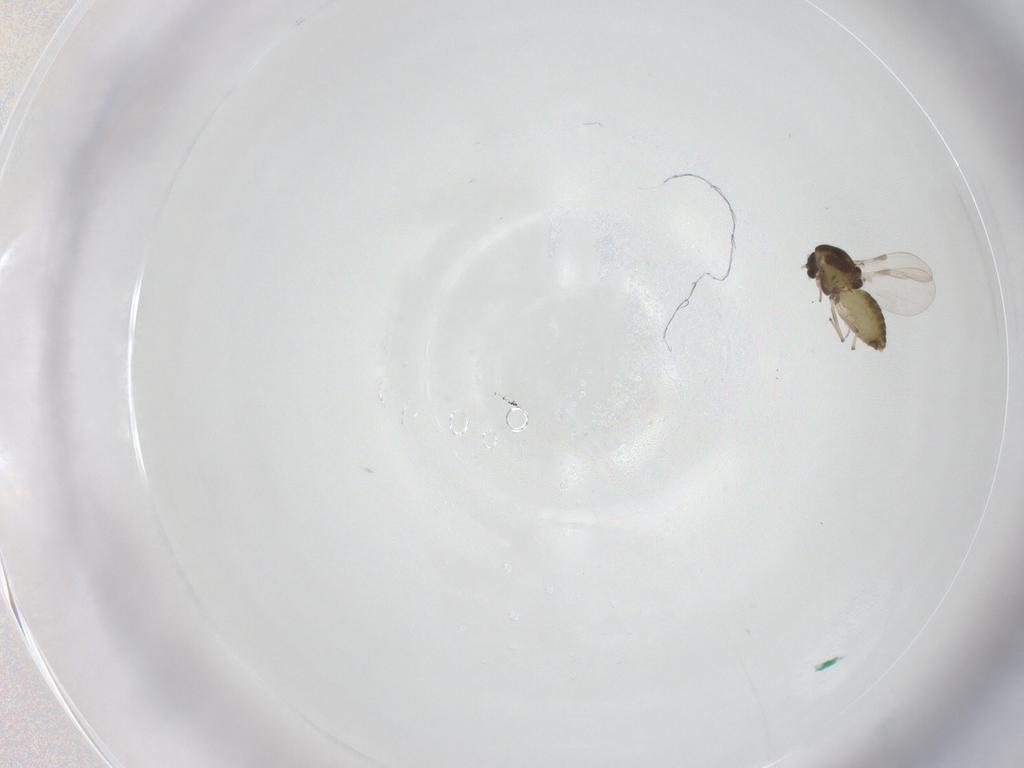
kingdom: Animalia
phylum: Arthropoda
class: Insecta
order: Diptera
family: Chironomidae
